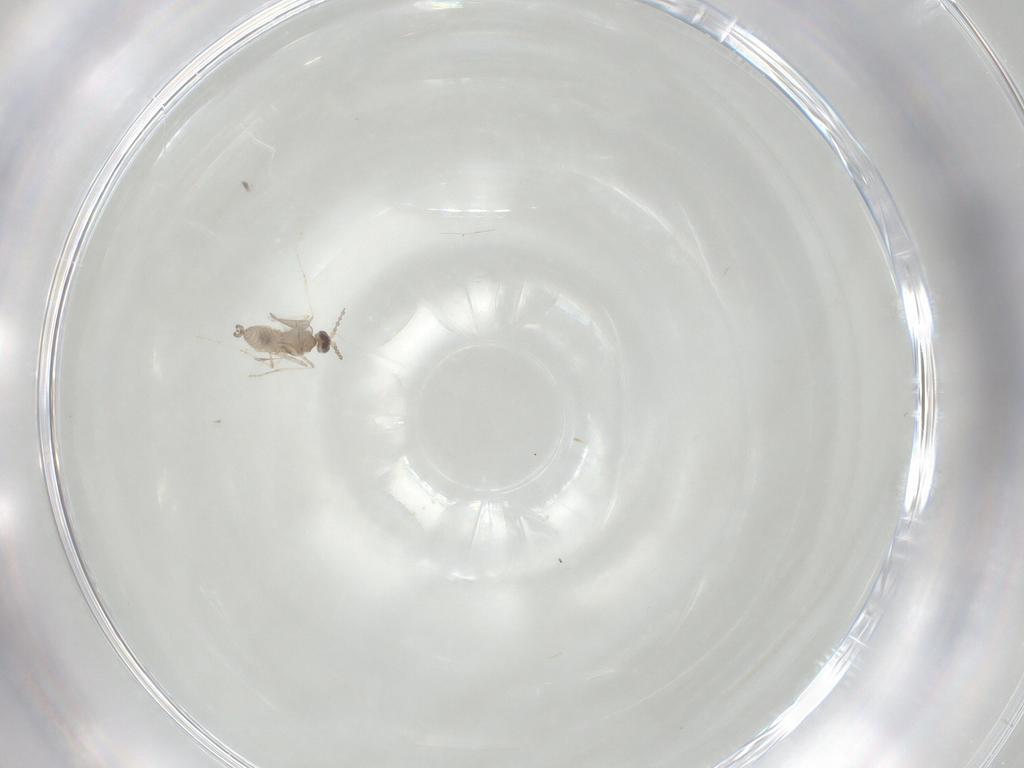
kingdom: Animalia
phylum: Arthropoda
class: Insecta
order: Diptera
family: Cecidomyiidae
